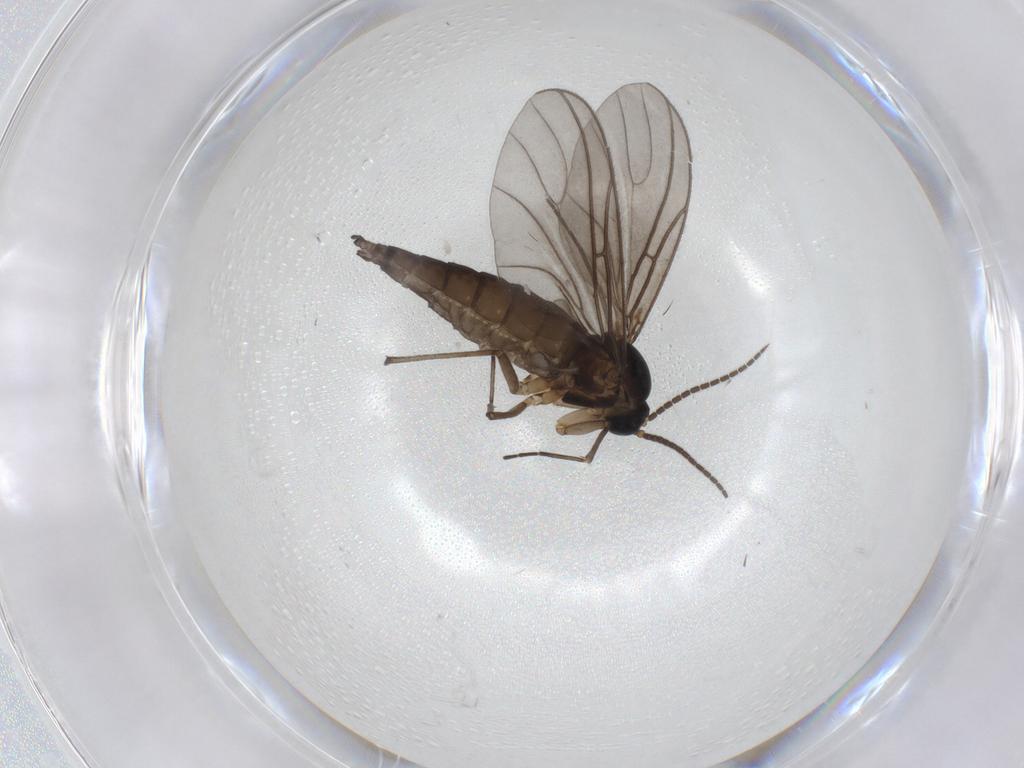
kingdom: Animalia
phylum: Arthropoda
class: Insecta
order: Diptera
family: Sciaridae
